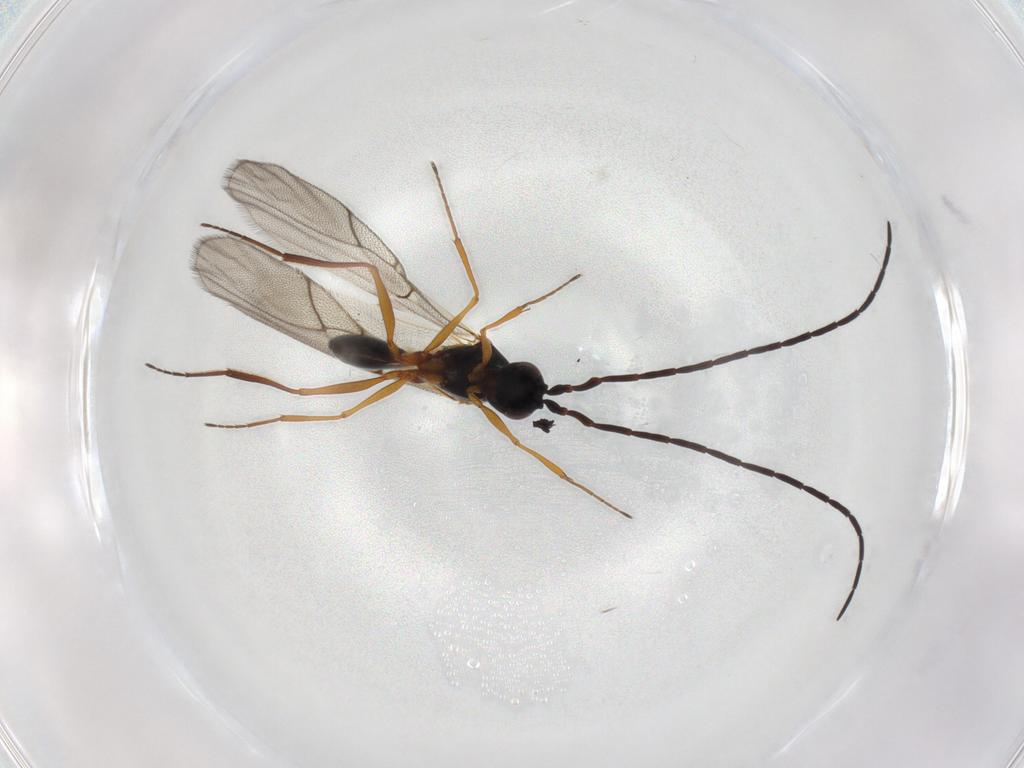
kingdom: Animalia
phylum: Arthropoda
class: Insecta
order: Hymenoptera
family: Figitidae
